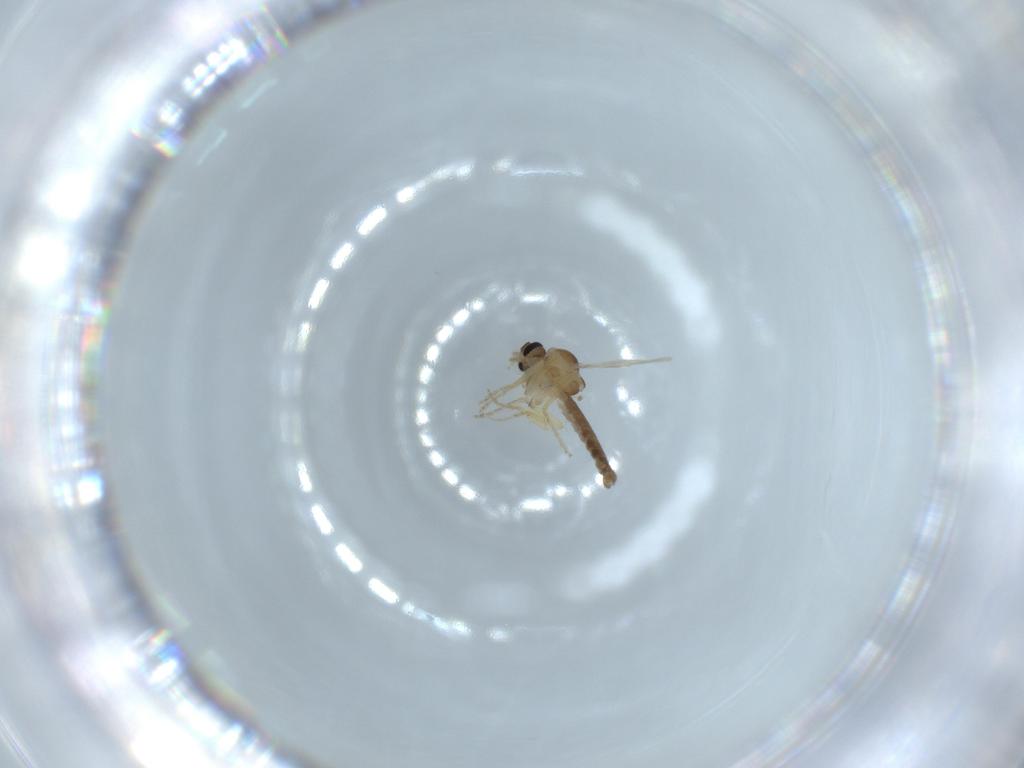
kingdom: Animalia
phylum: Arthropoda
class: Insecta
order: Diptera
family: Ceratopogonidae
